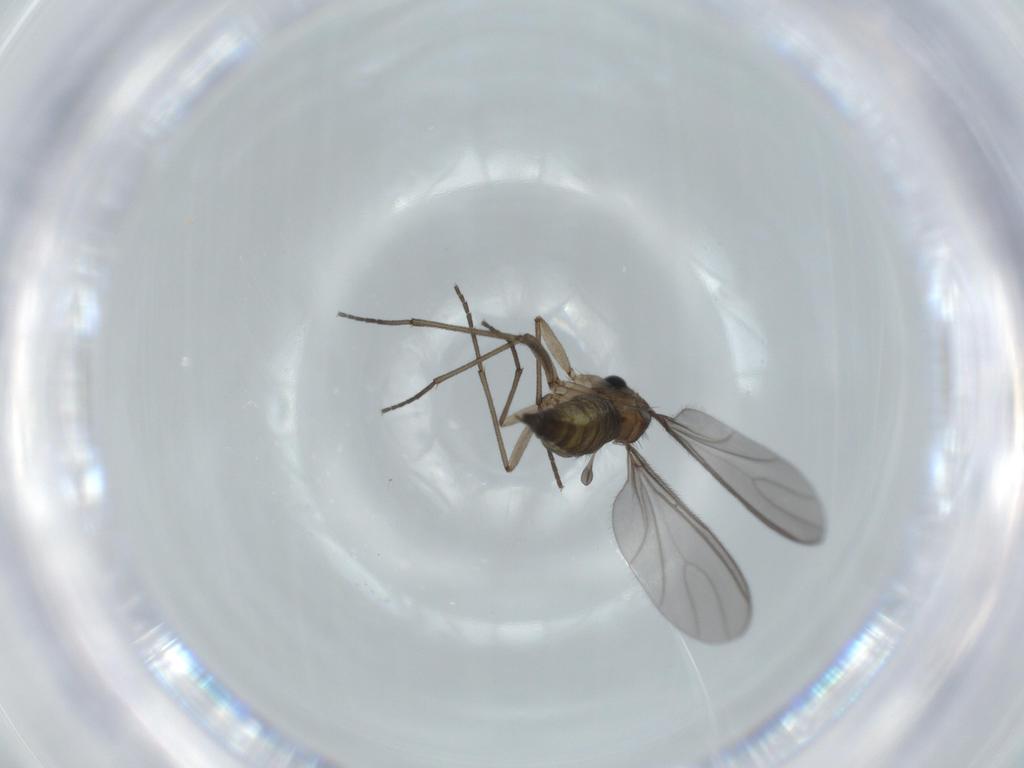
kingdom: Animalia
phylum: Arthropoda
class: Insecta
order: Diptera
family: Sciaridae
